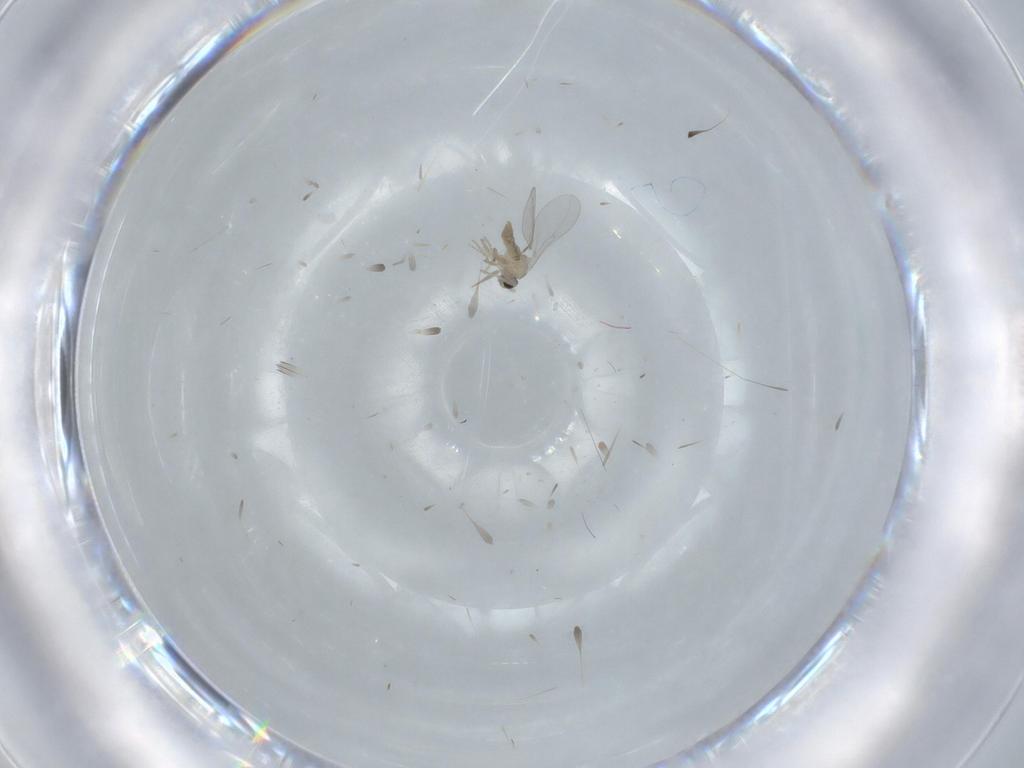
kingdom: Animalia
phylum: Arthropoda
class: Insecta
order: Diptera
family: Cecidomyiidae
